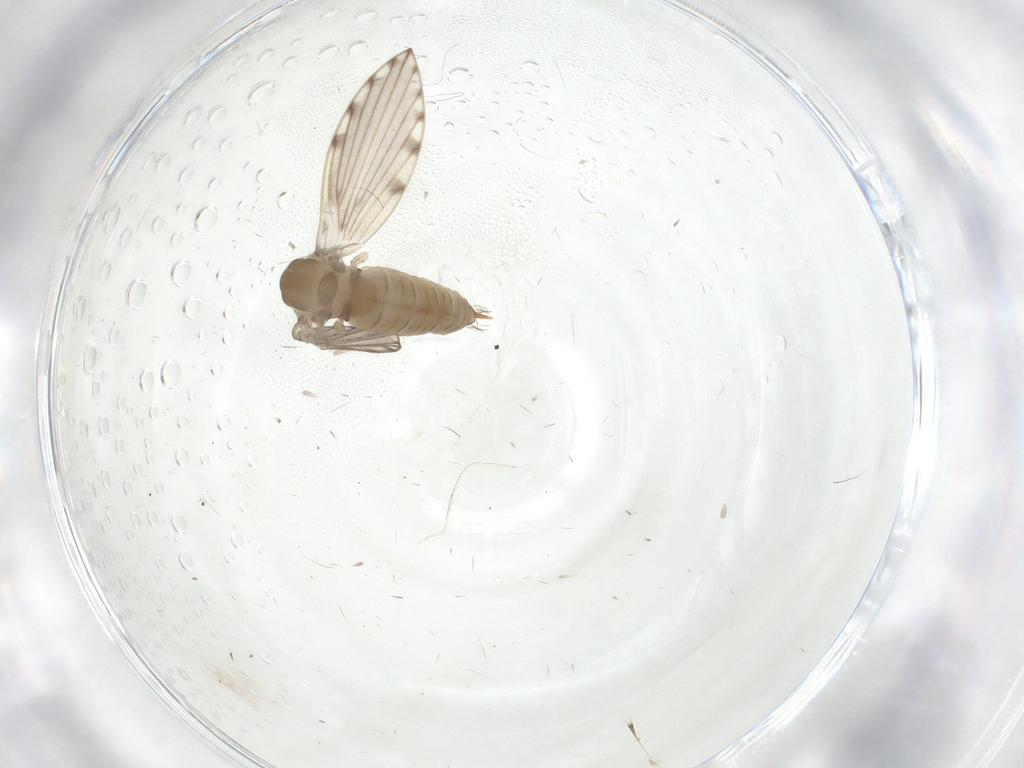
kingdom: Animalia
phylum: Arthropoda
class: Insecta
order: Diptera
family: Psychodidae
